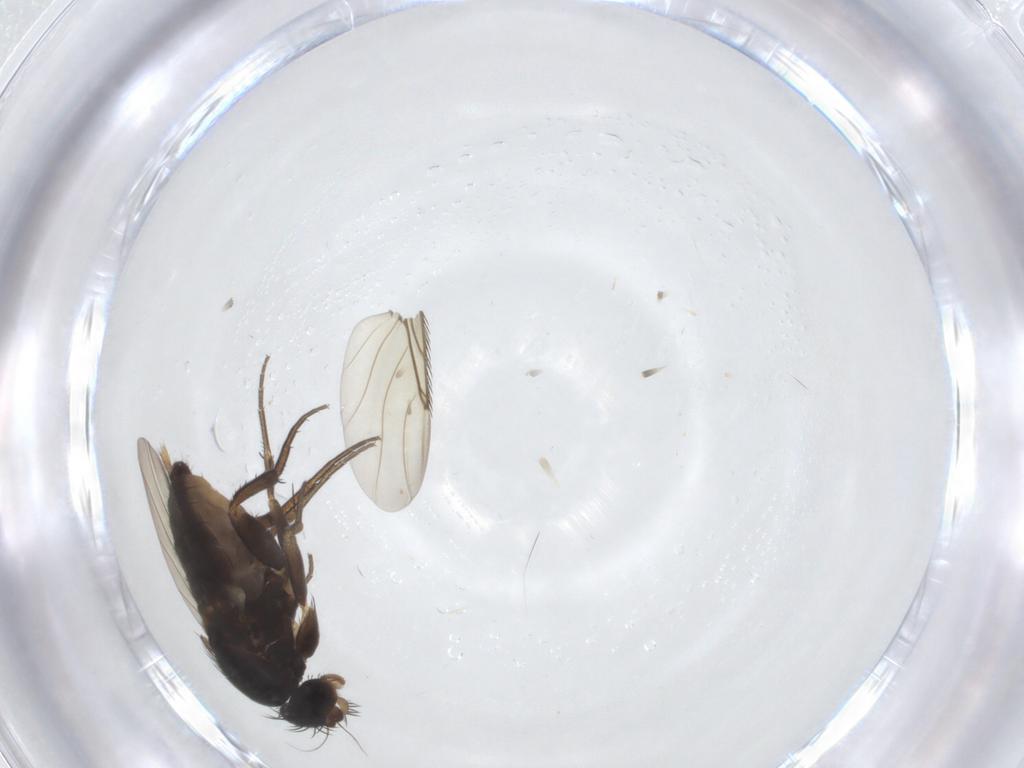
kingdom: Animalia
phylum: Arthropoda
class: Insecta
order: Diptera
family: Phoridae
